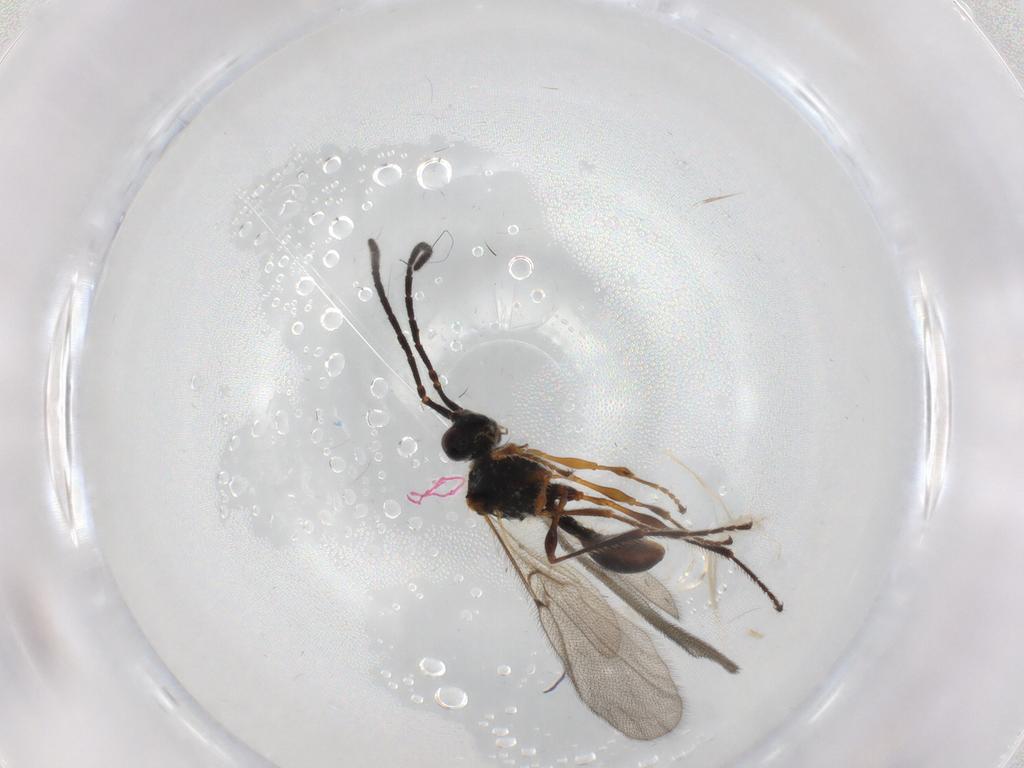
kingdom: Animalia
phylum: Arthropoda
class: Insecta
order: Hymenoptera
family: Diapriidae
